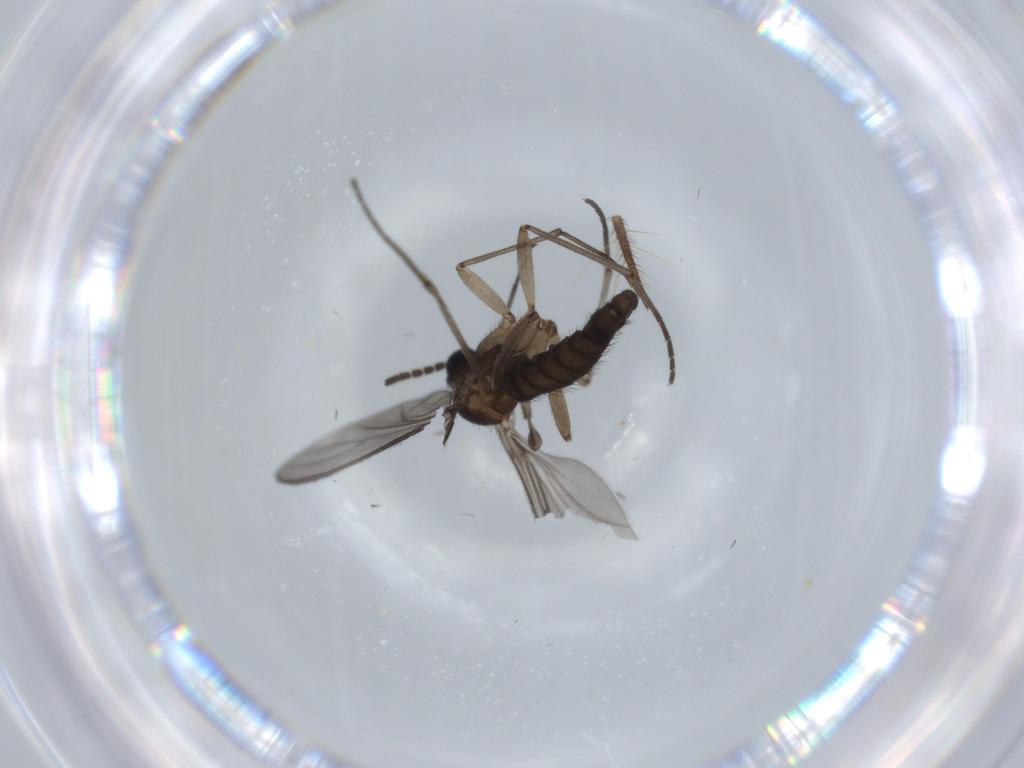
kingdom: Animalia
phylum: Arthropoda
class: Insecta
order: Diptera
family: Sciaridae
